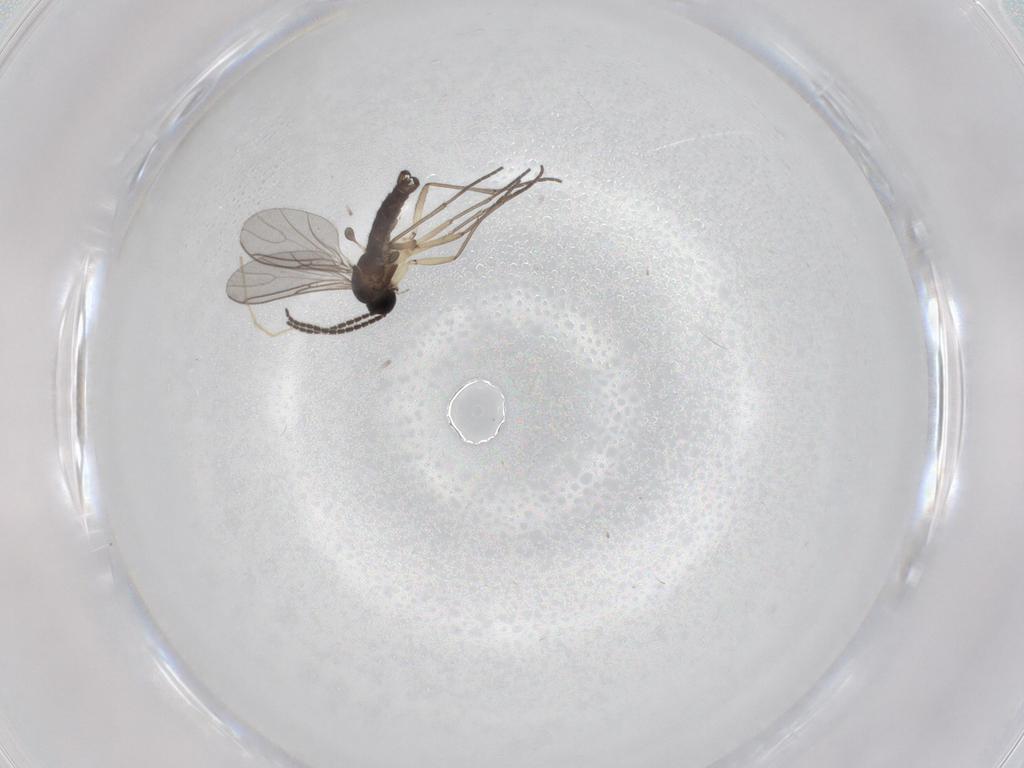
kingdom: Animalia
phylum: Arthropoda
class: Insecta
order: Diptera
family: Sciaridae
